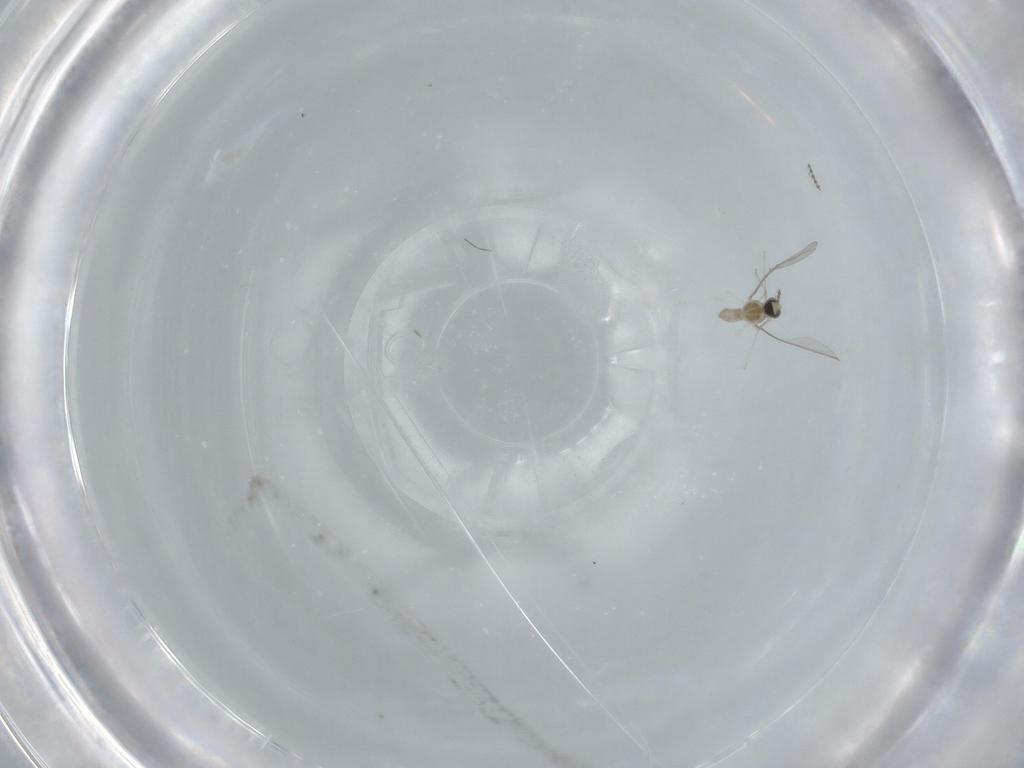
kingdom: Animalia
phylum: Arthropoda
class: Insecta
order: Diptera
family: Cecidomyiidae
